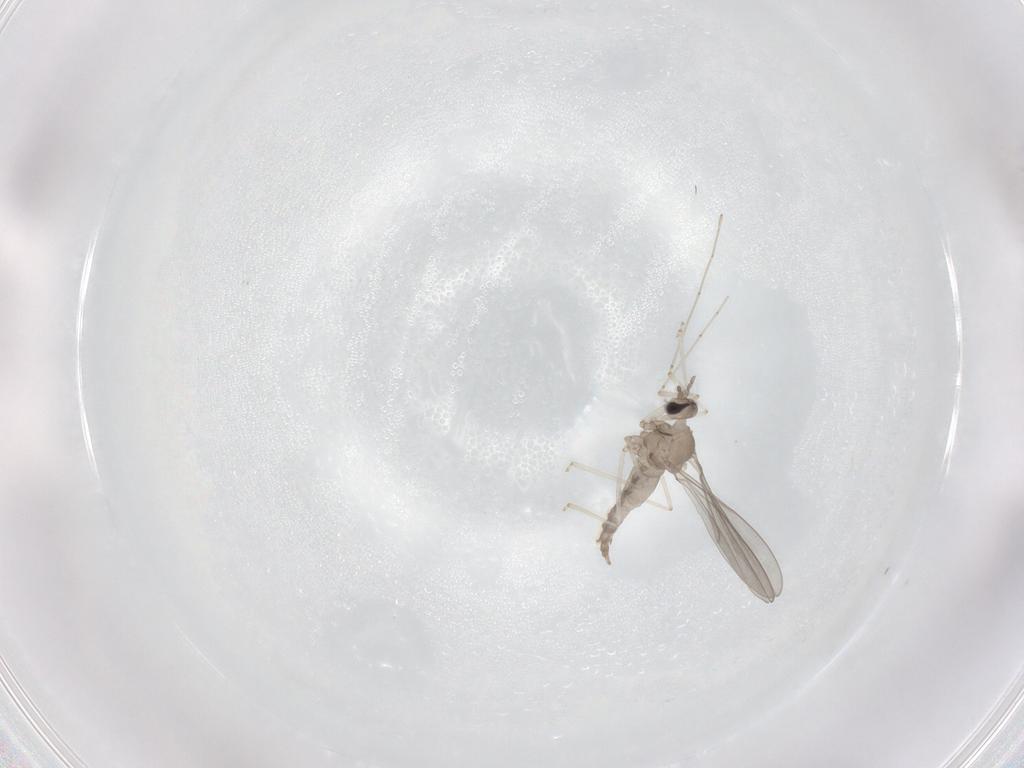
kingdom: Animalia
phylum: Arthropoda
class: Insecta
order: Diptera
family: Cecidomyiidae
